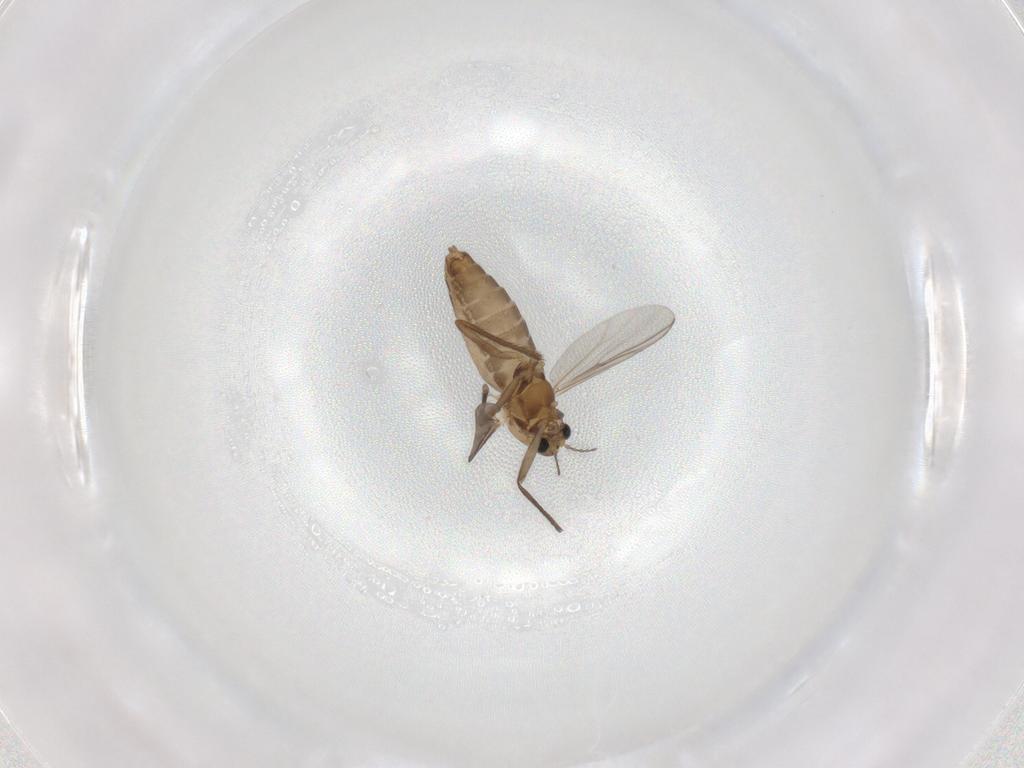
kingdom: Animalia
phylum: Arthropoda
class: Insecta
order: Diptera
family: Chironomidae
